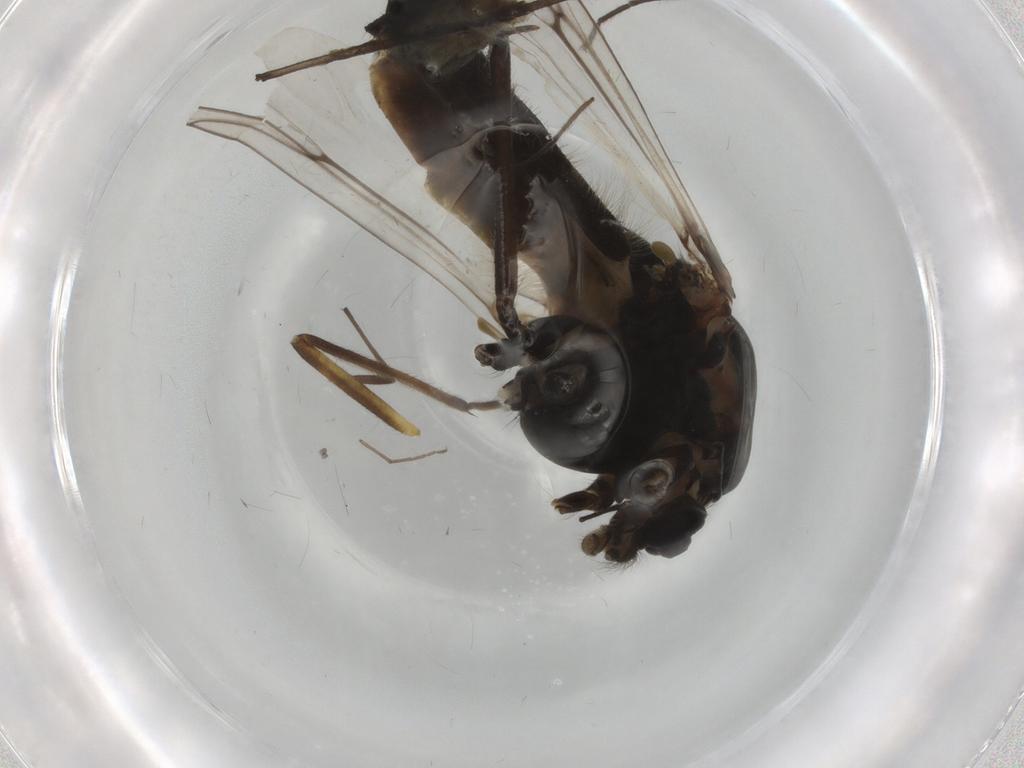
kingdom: Animalia
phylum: Arthropoda
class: Insecta
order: Diptera
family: Chironomidae
